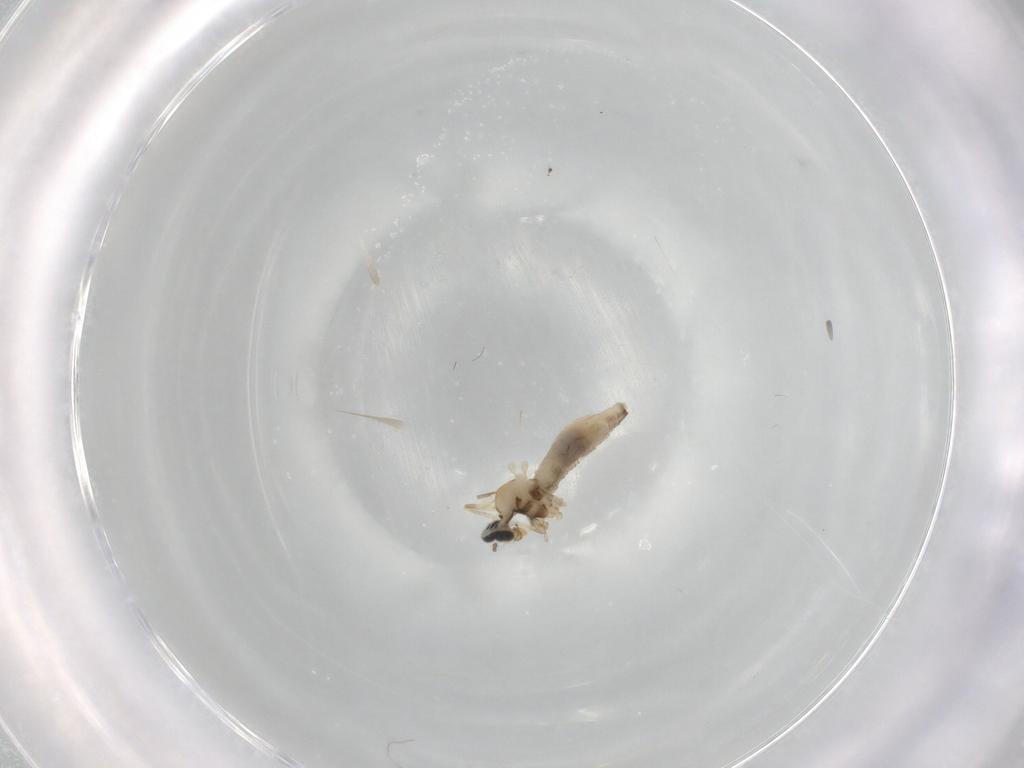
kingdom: Animalia
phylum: Arthropoda
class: Insecta
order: Diptera
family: Cecidomyiidae
